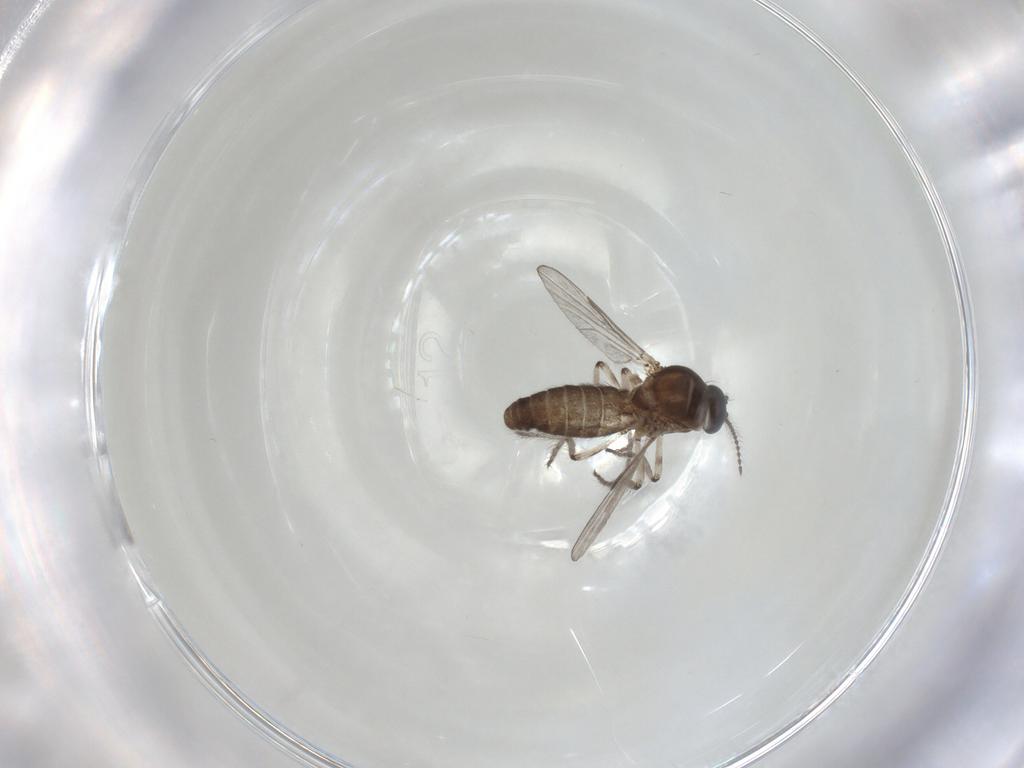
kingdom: Animalia
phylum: Arthropoda
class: Insecta
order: Diptera
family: Ceratopogonidae
